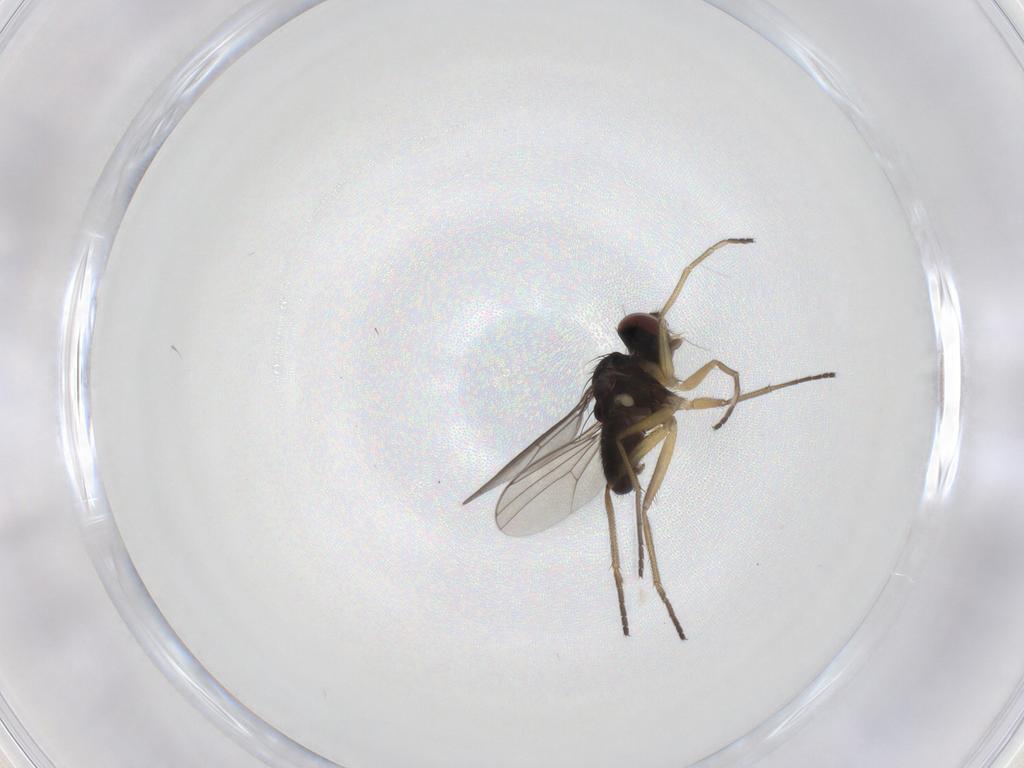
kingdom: Animalia
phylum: Arthropoda
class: Insecta
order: Diptera
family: Dolichopodidae
